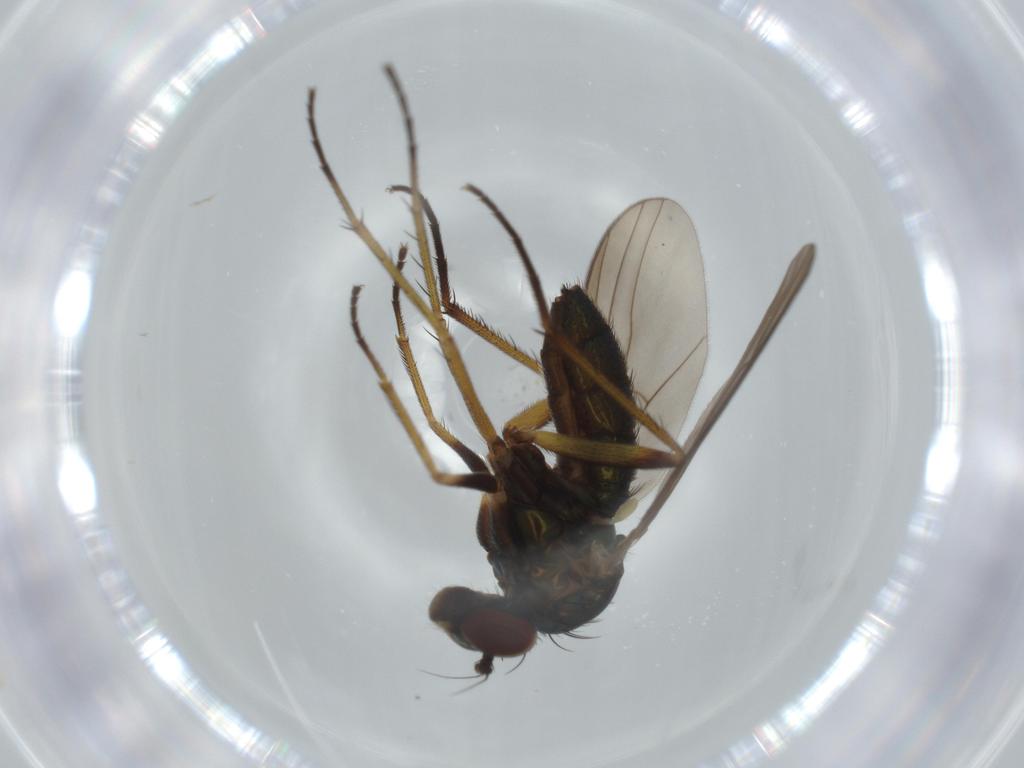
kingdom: Animalia
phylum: Arthropoda
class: Insecta
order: Diptera
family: Dolichopodidae
